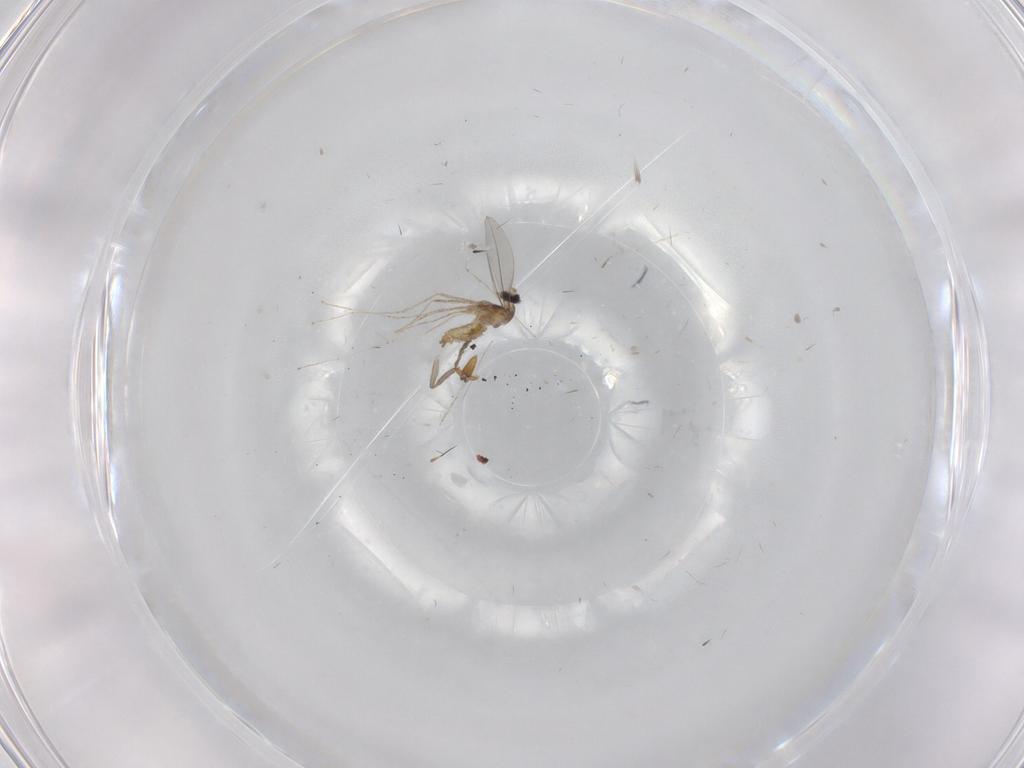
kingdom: Animalia
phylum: Arthropoda
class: Insecta
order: Diptera
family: Cecidomyiidae
